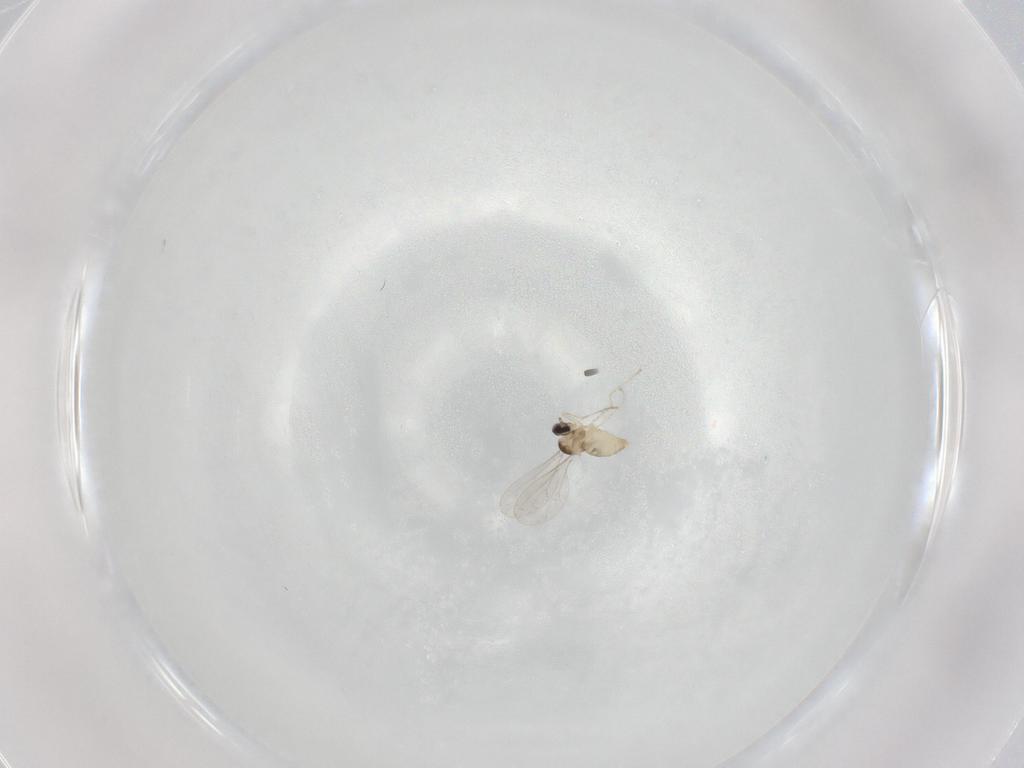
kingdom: Animalia
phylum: Arthropoda
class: Insecta
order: Diptera
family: Cecidomyiidae
